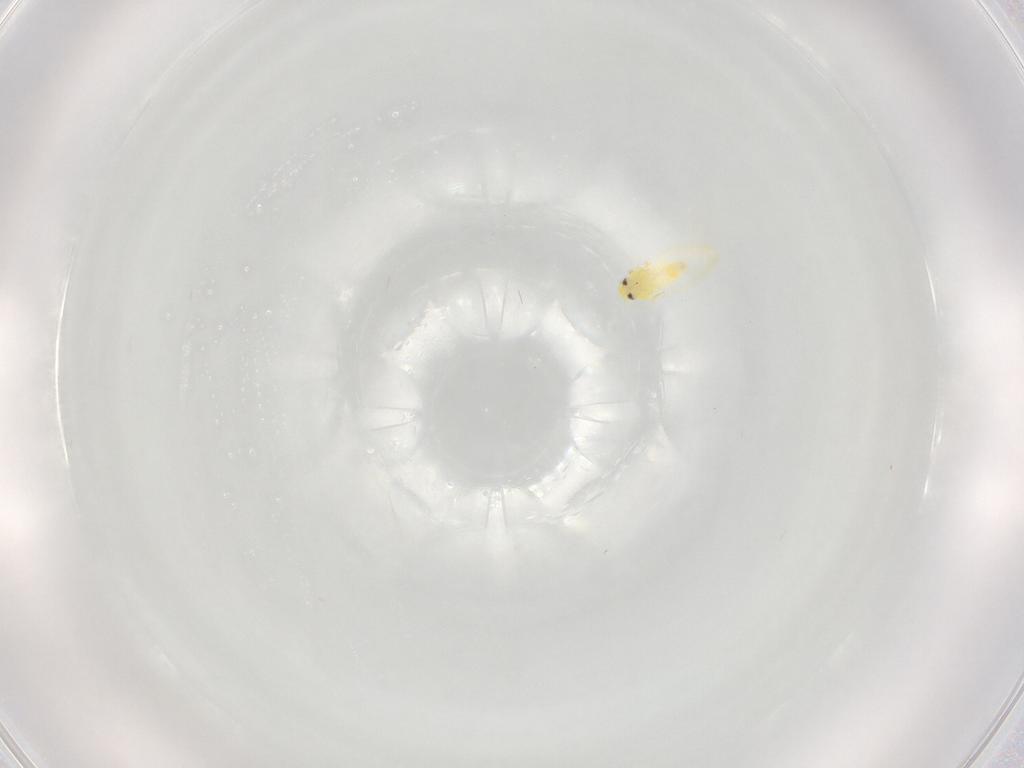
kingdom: Animalia
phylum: Arthropoda
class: Insecta
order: Hemiptera
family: Aleyrodidae
